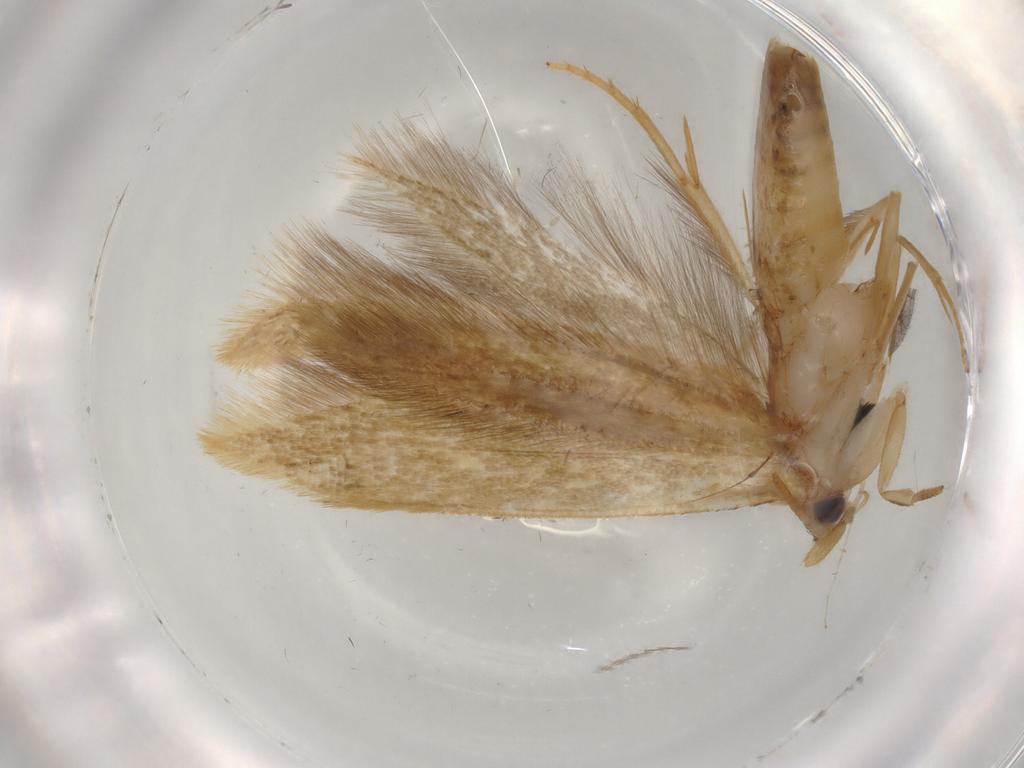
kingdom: Animalia
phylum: Arthropoda
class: Insecta
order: Lepidoptera
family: Tineidae
